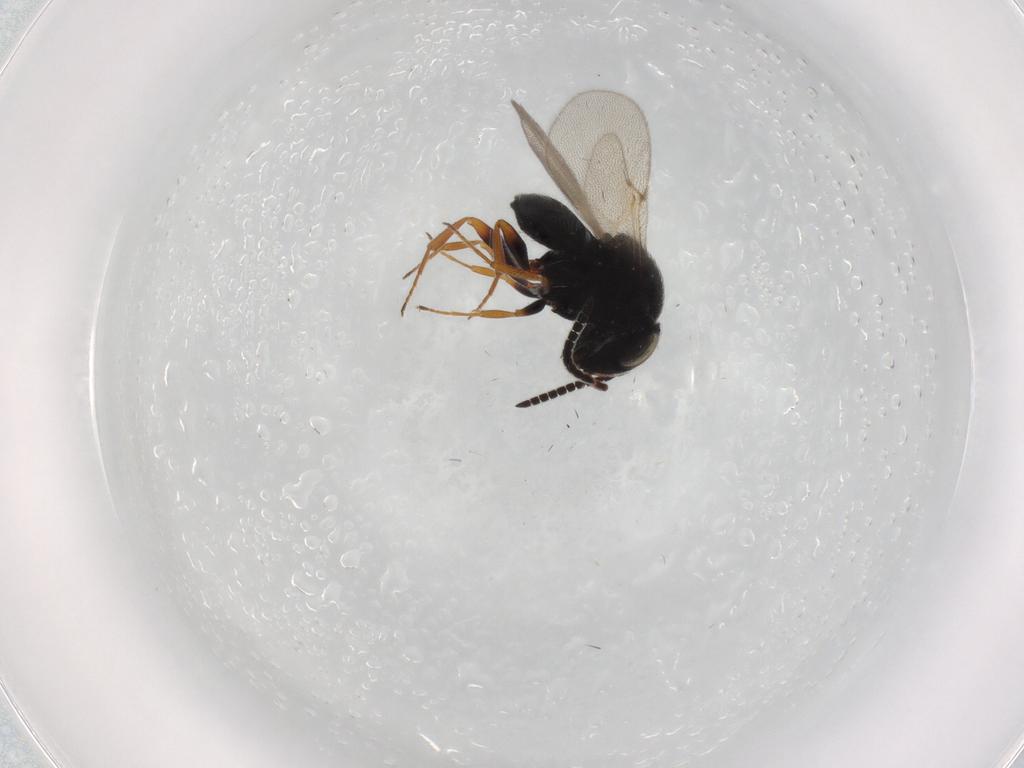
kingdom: Animalia
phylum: Arthropoda
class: Insecta
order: Hymenoptera
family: Scelionidae
